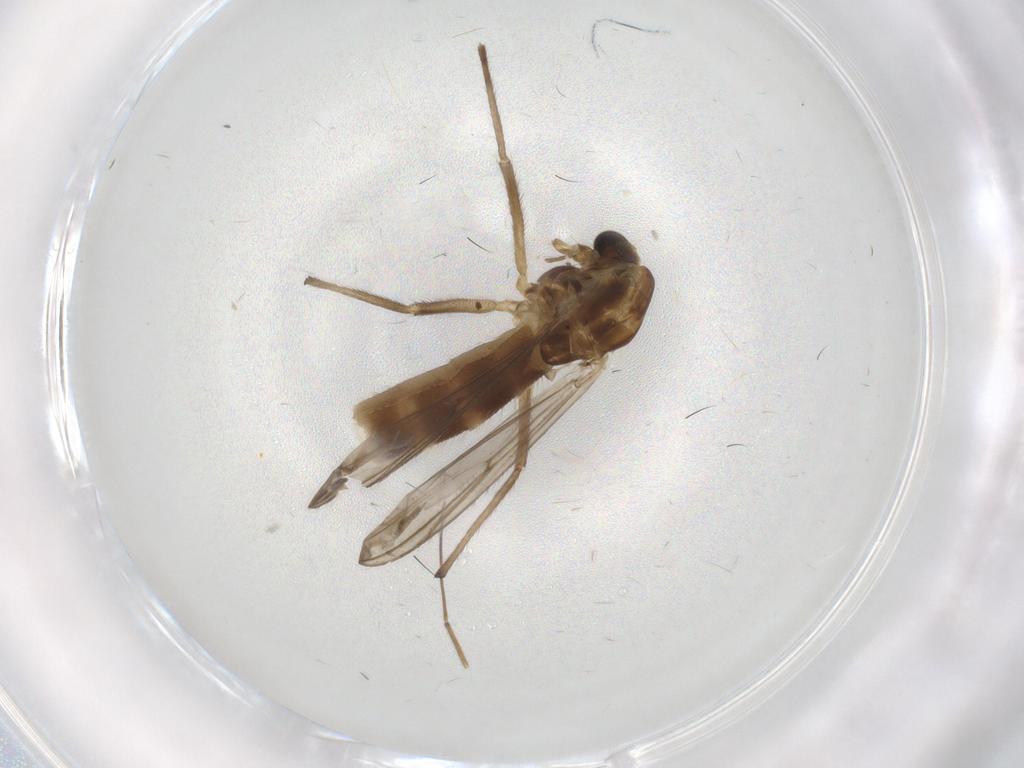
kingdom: Animalia
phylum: Arthropoda
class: Insecta
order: Diptera
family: Chironomidae
